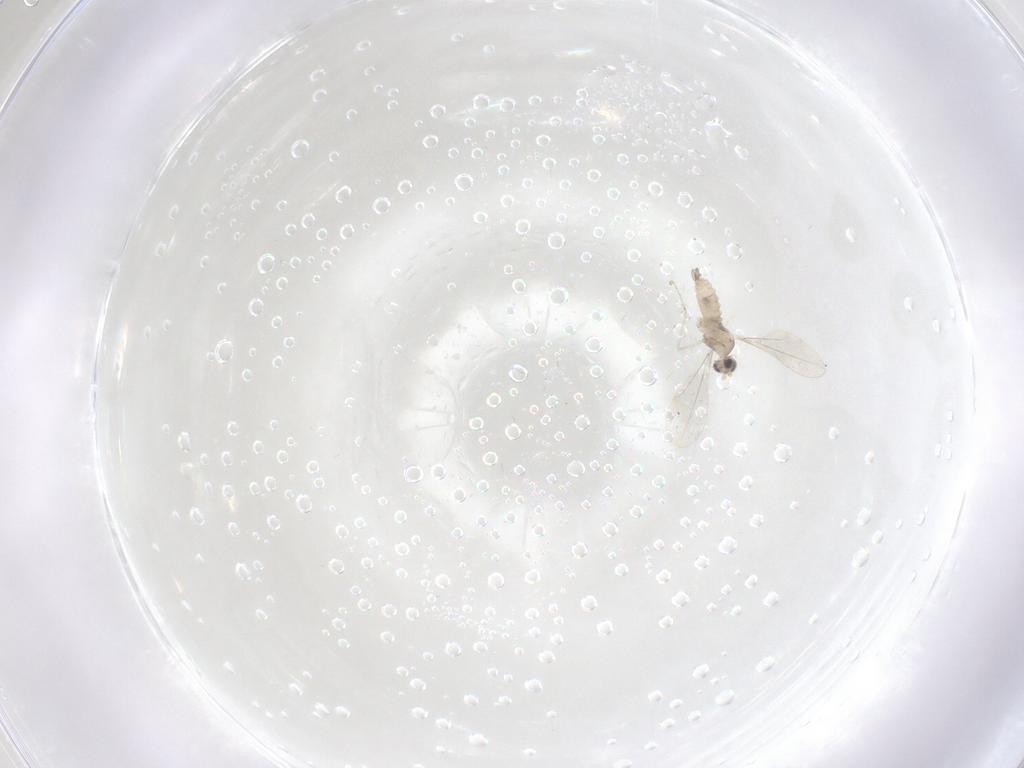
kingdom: Animalia
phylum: Arthropoda
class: Insecta
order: Diptera
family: Cecidomyiidae
